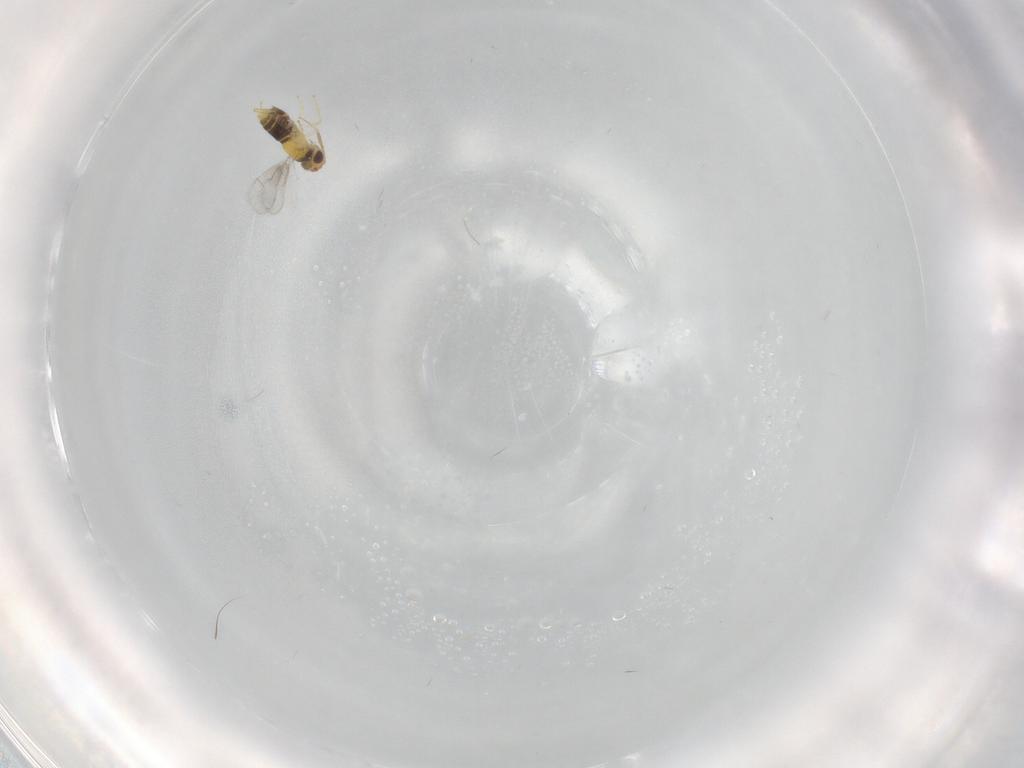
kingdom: Animalia
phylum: Arthropoda
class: Insecta
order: Hymenoptera
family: Aphelinidae
